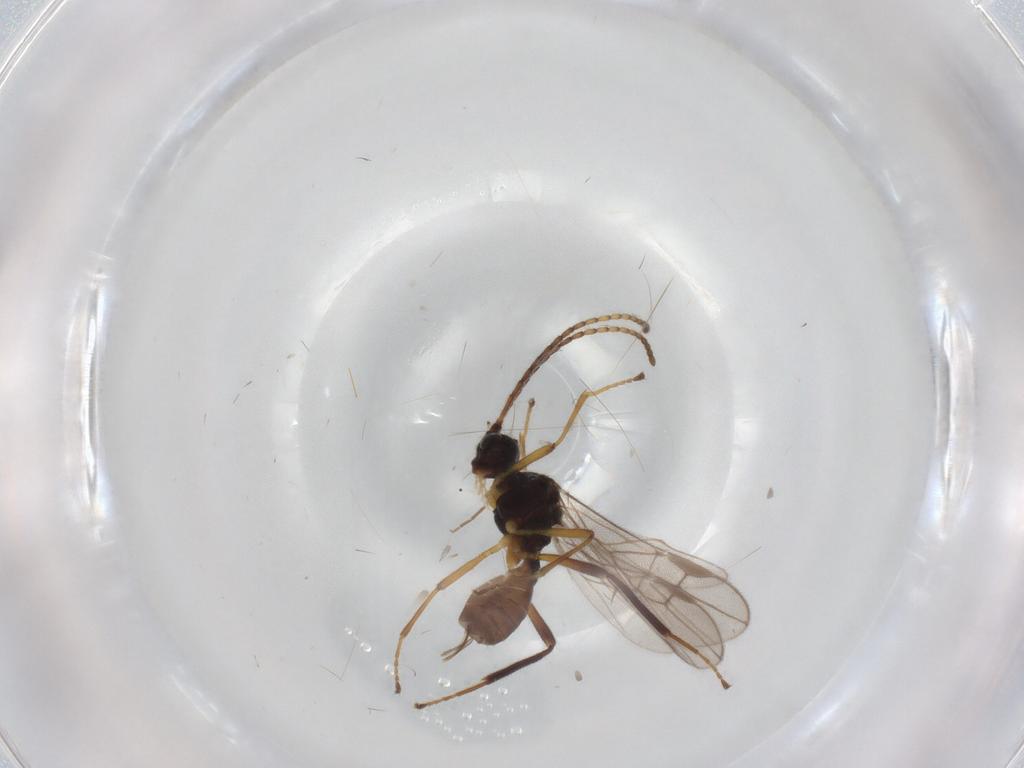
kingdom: Animalia
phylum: Arthropoda
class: Insecta
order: Hymenoptera
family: Braconidae
